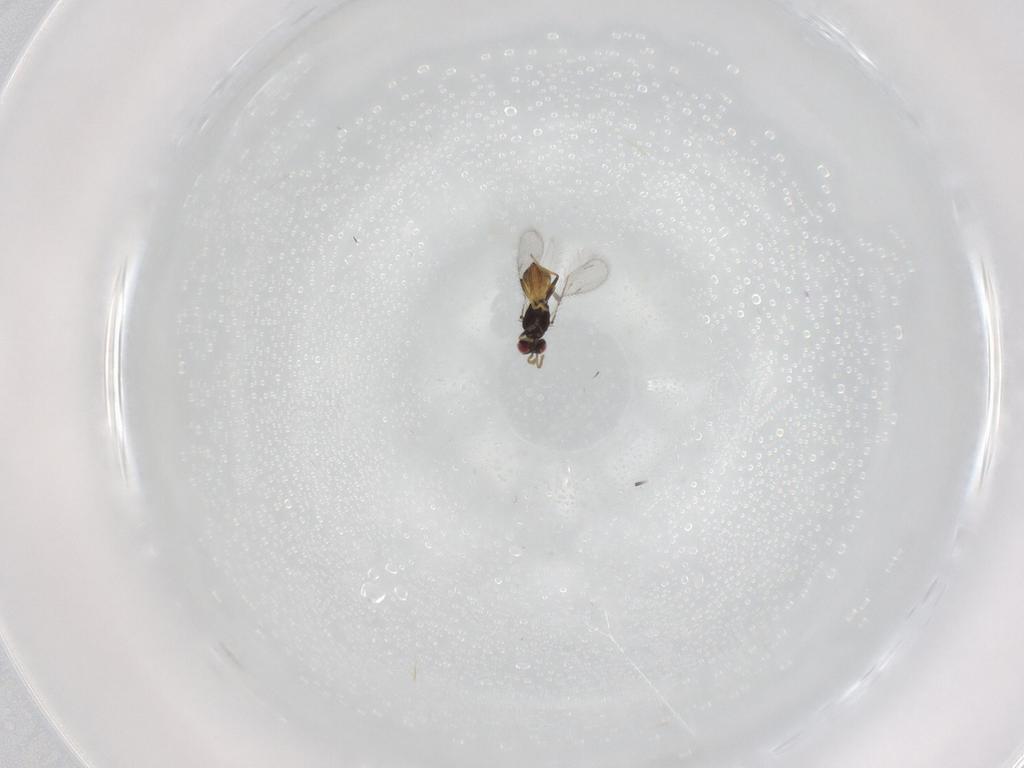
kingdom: Animalia
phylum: Arthropoda
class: Insecta
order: Hymenoptera
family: Eulophidae
